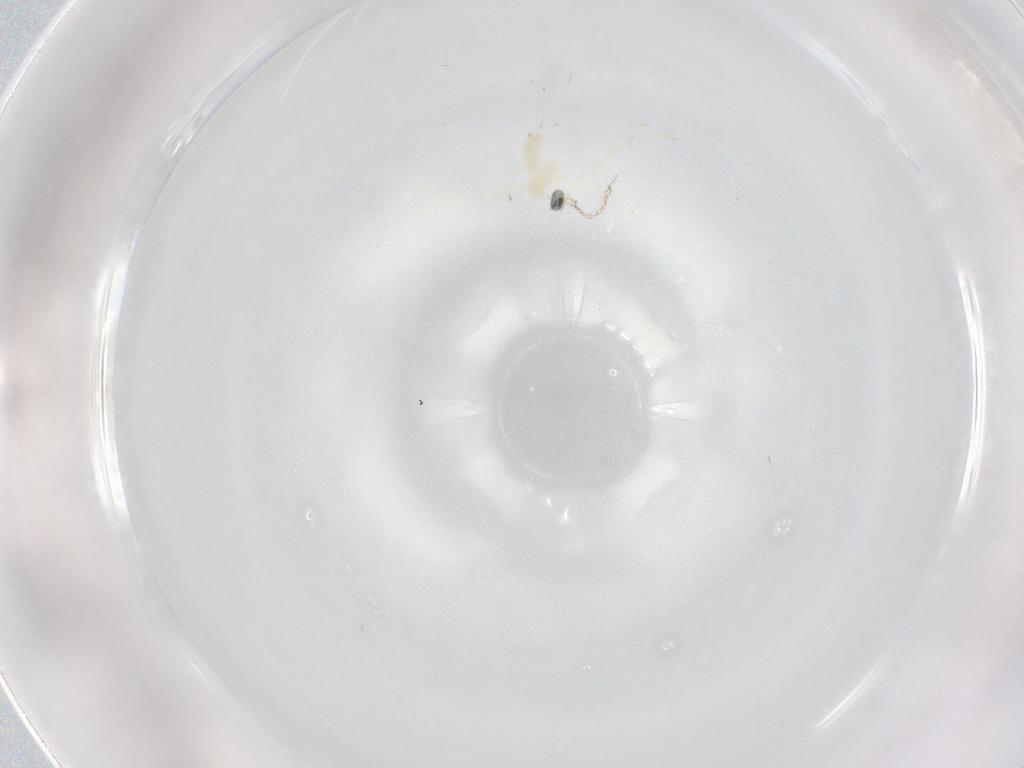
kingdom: Animalia
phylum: Arthropoda
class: Insecta
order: Diptera
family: Cecidomyiidae
